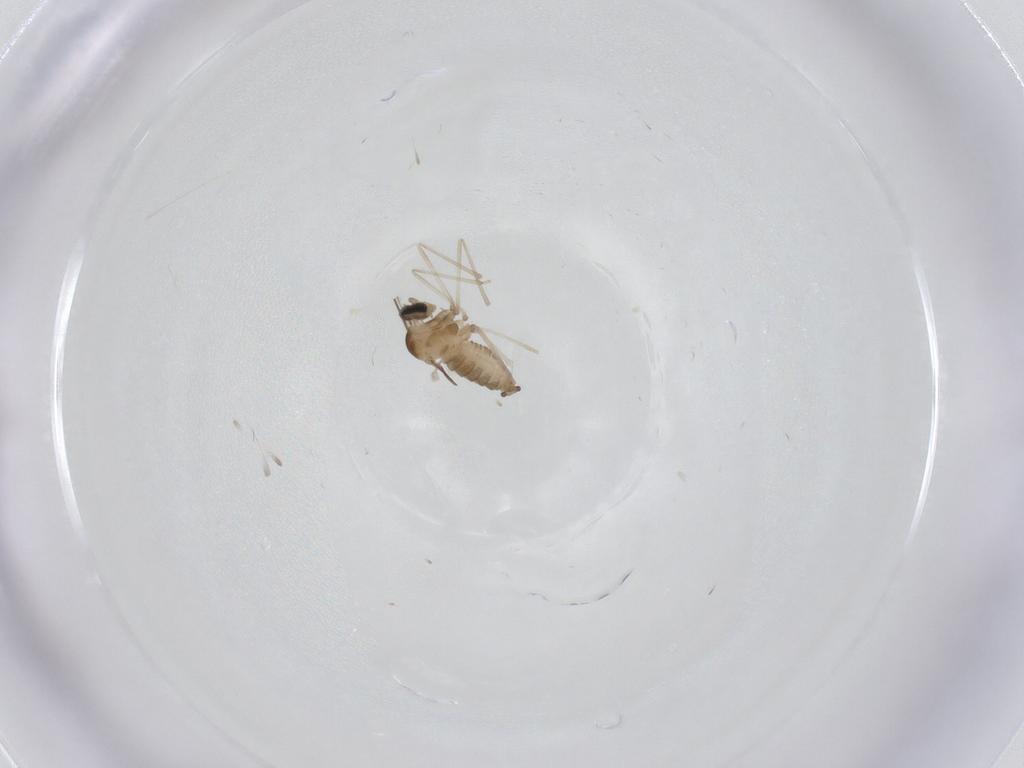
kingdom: Animalia
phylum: Arthropoda
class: Insecta
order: Diptera
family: Cecidomyiidae
